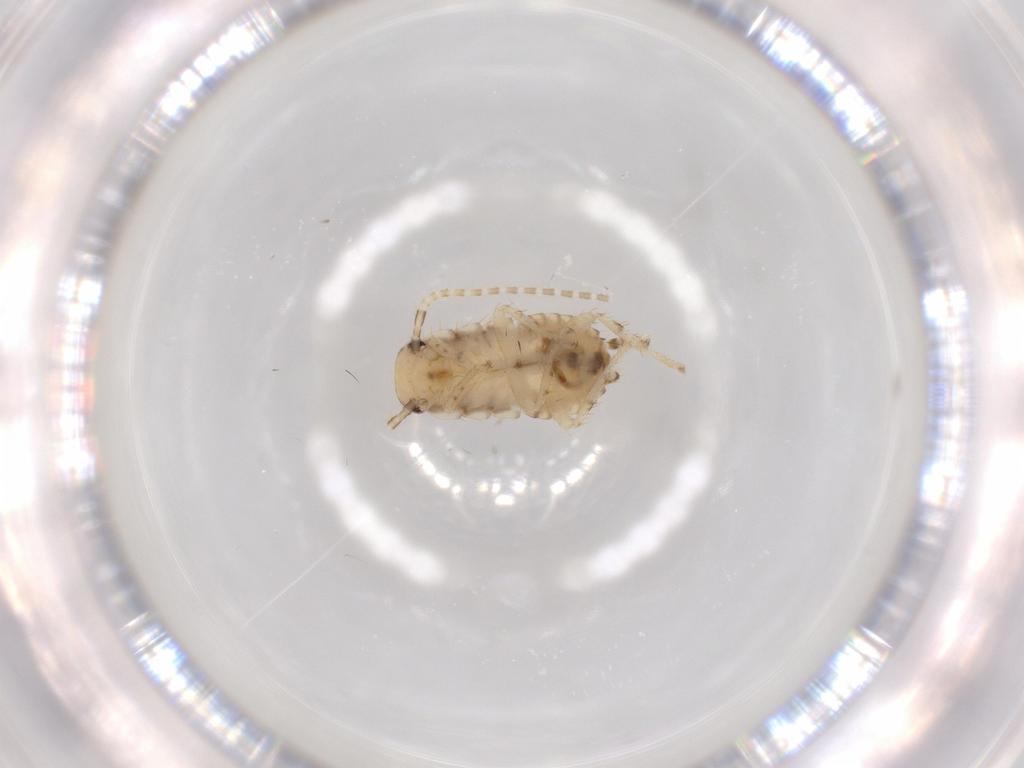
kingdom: Animalia
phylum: Arthropoda
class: Insecta
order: Blattodea
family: Ectobiidae
